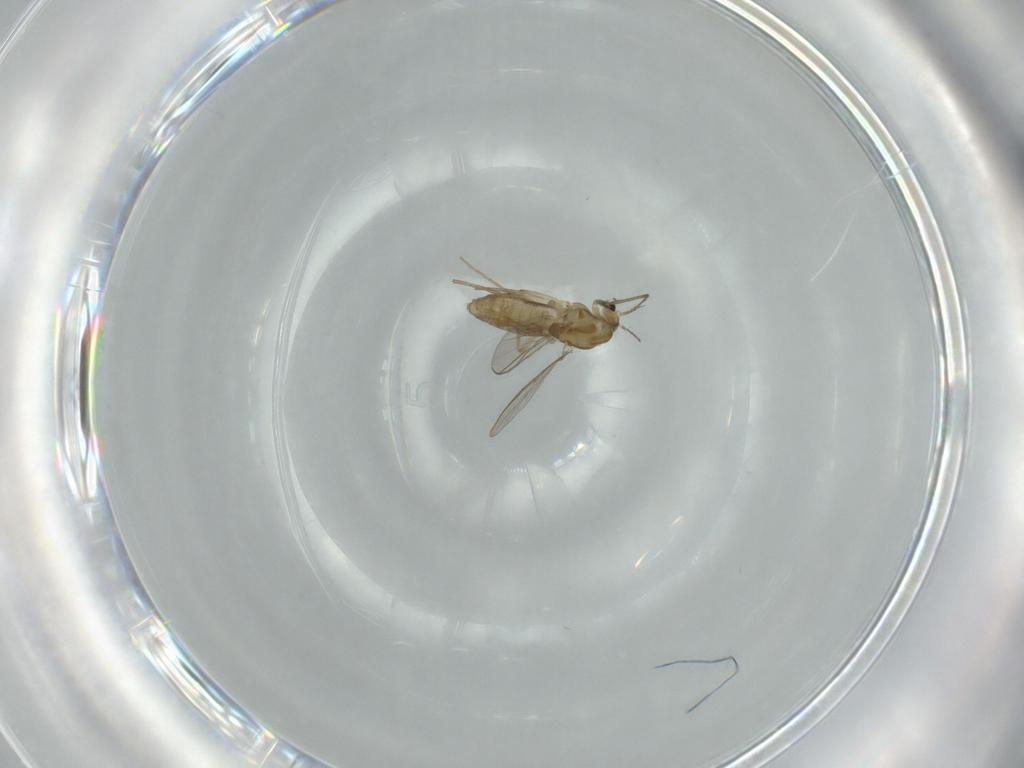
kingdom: Animalia
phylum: Arthropoda
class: Insecta
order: Diptera
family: Chironomidae
